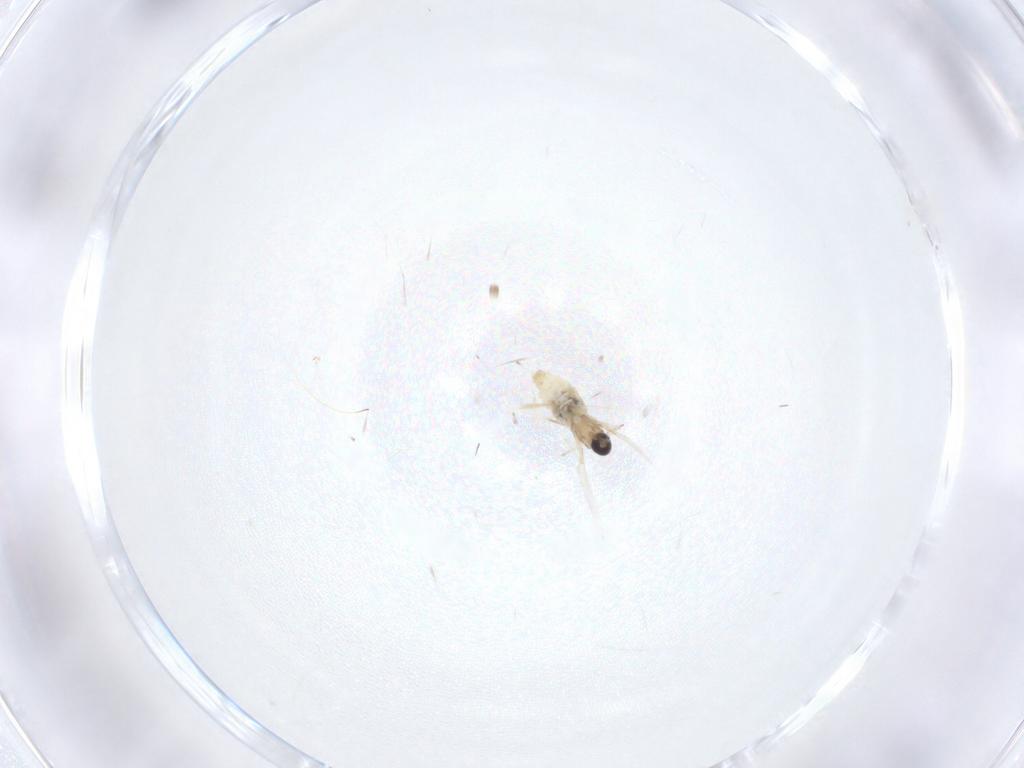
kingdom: Animalia
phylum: Arthropoda
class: Insecta
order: Diptera
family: Cecidomyiidae
